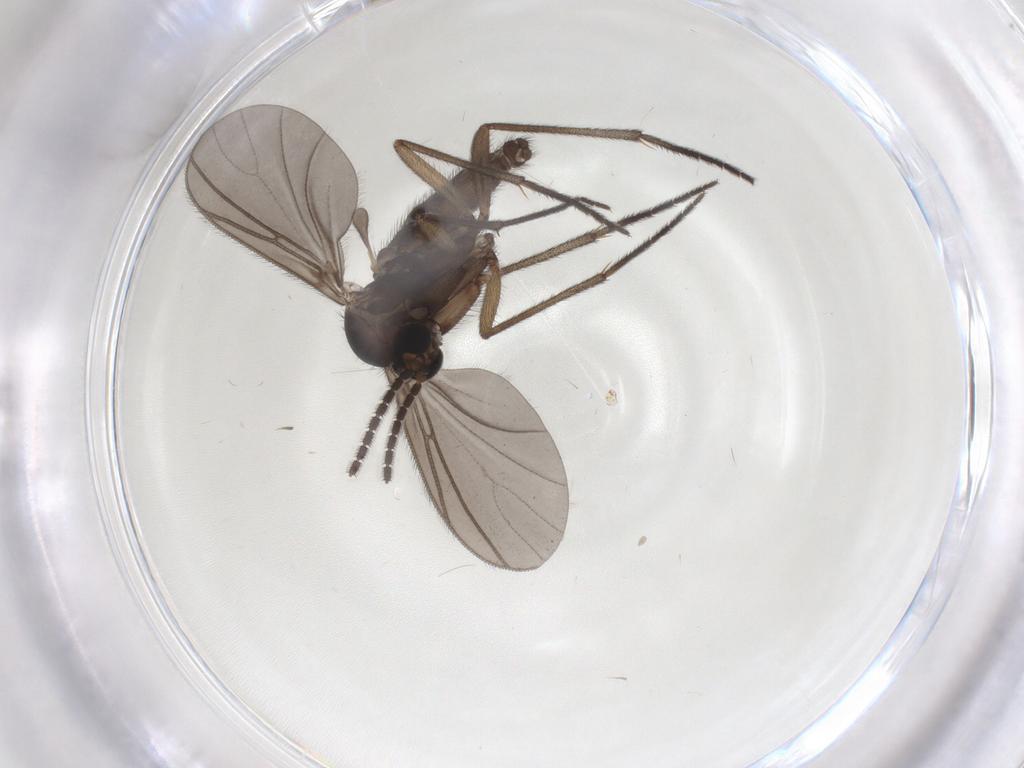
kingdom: Animalia
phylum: Arthropoda
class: Insecta
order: Diptera
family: Sciaridae
